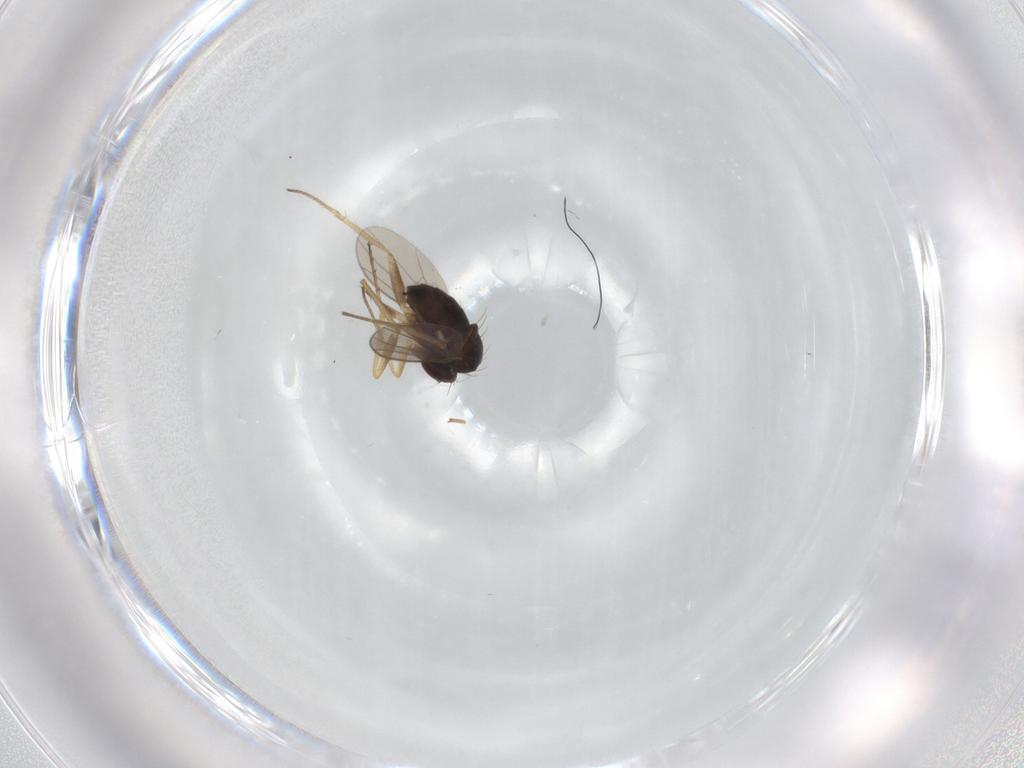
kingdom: Animalia
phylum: Arthropoda
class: Insecta
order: Diptera
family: Dolichopodidae
